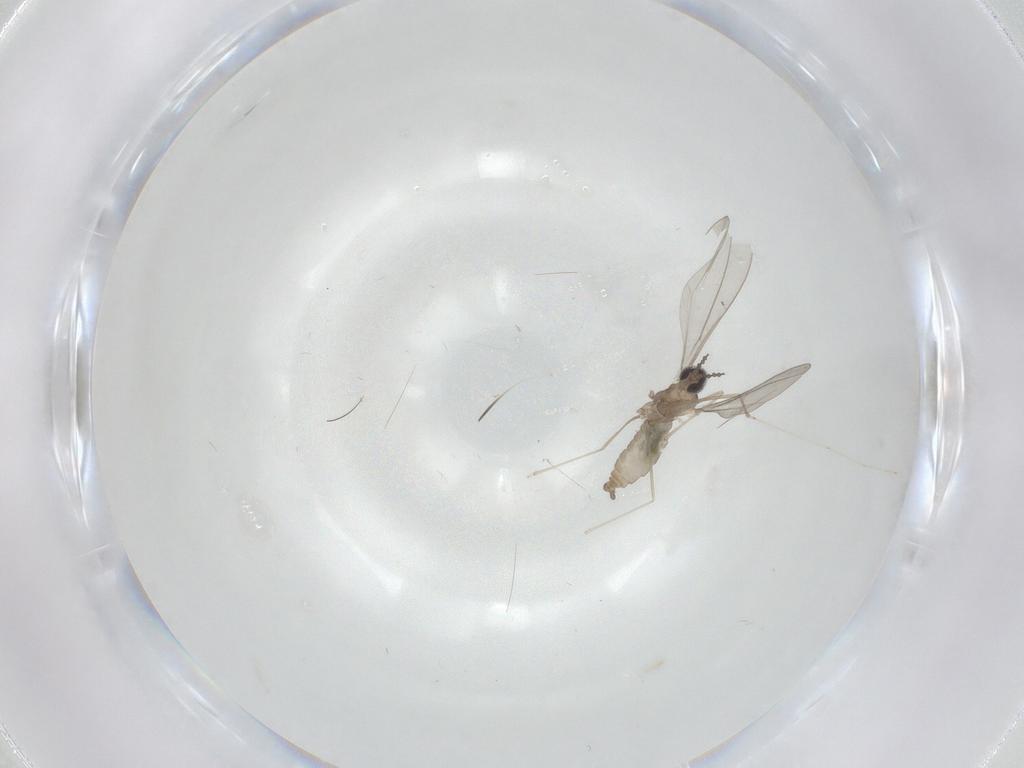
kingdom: Animalia
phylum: Arthropoda
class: Insecta
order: Diptera
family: Cecidomyiidae
